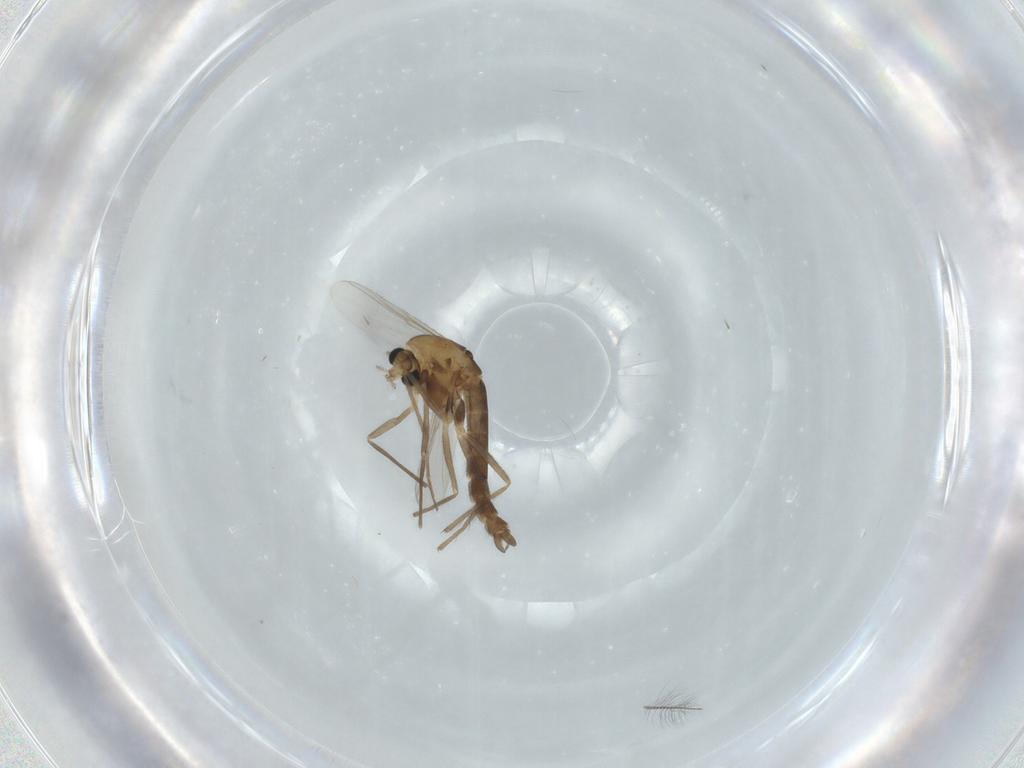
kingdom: Animalia
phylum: Arthropoda
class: Insecta
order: Diptera
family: Chironomidae
